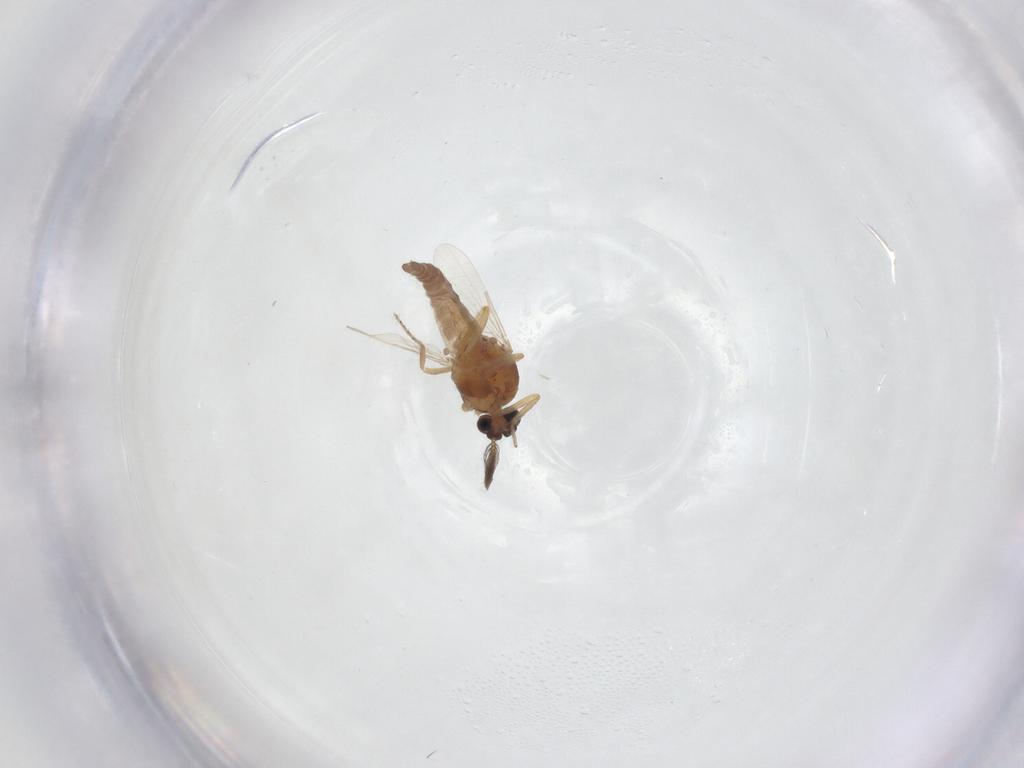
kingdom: Animalia
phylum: Arthropoda
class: Insecta
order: Diptera
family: Ceratopogonidae
